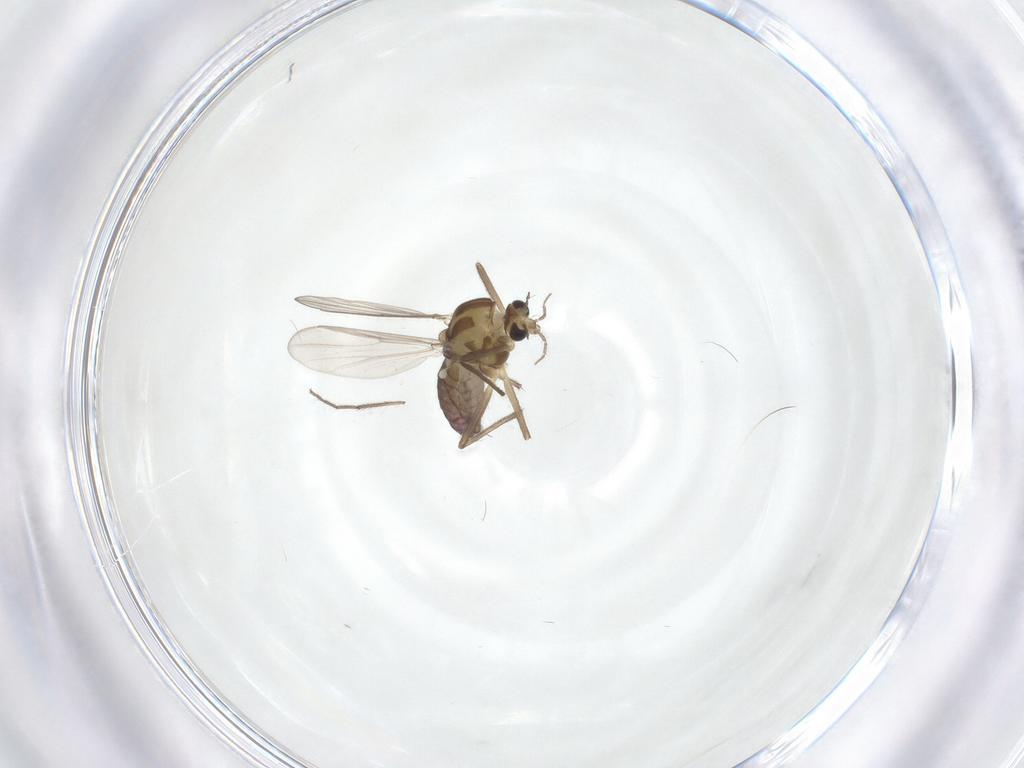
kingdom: Animalia
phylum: Arthropoda
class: Insecta
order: Diptera
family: Chironomidae
